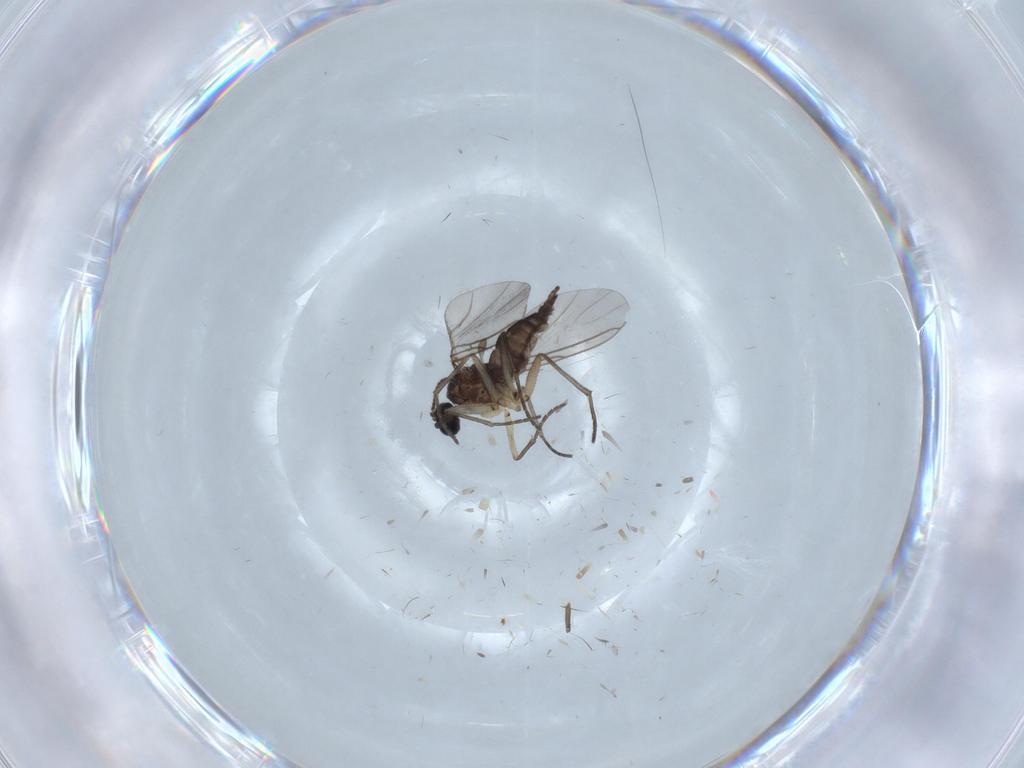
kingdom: Animalia
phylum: Arthropoda
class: Insecta
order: Diptera
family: Sciaridae
